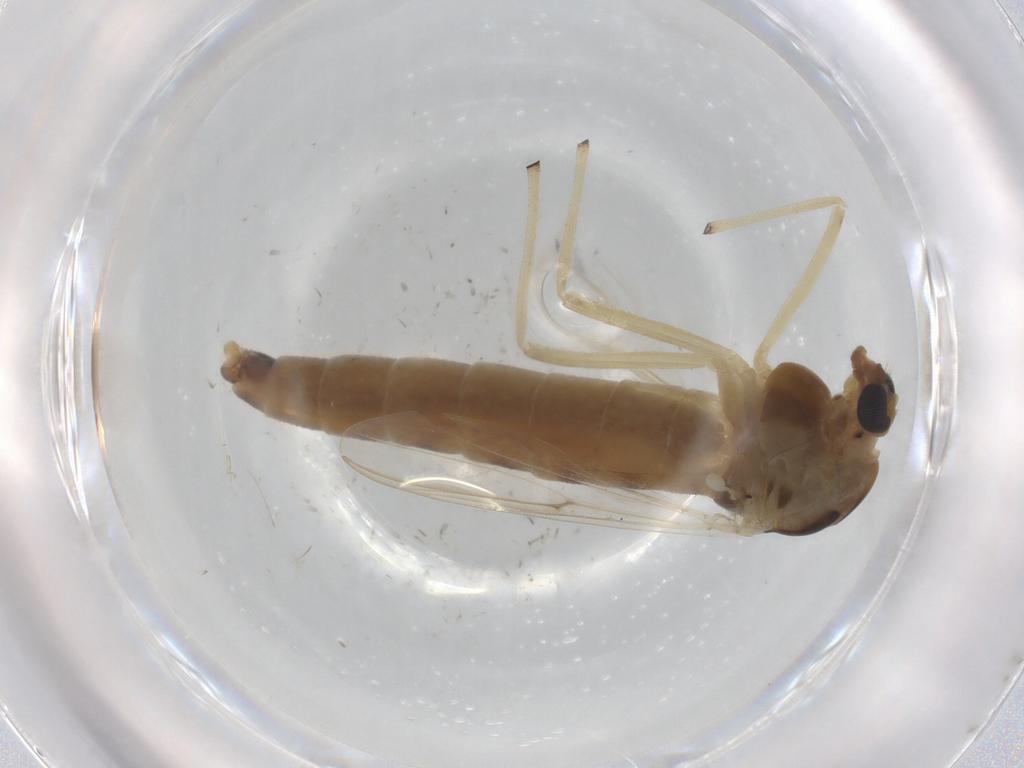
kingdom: Animalia
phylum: Arthropoda
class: Insecta
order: Diptera
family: Chironomidae
